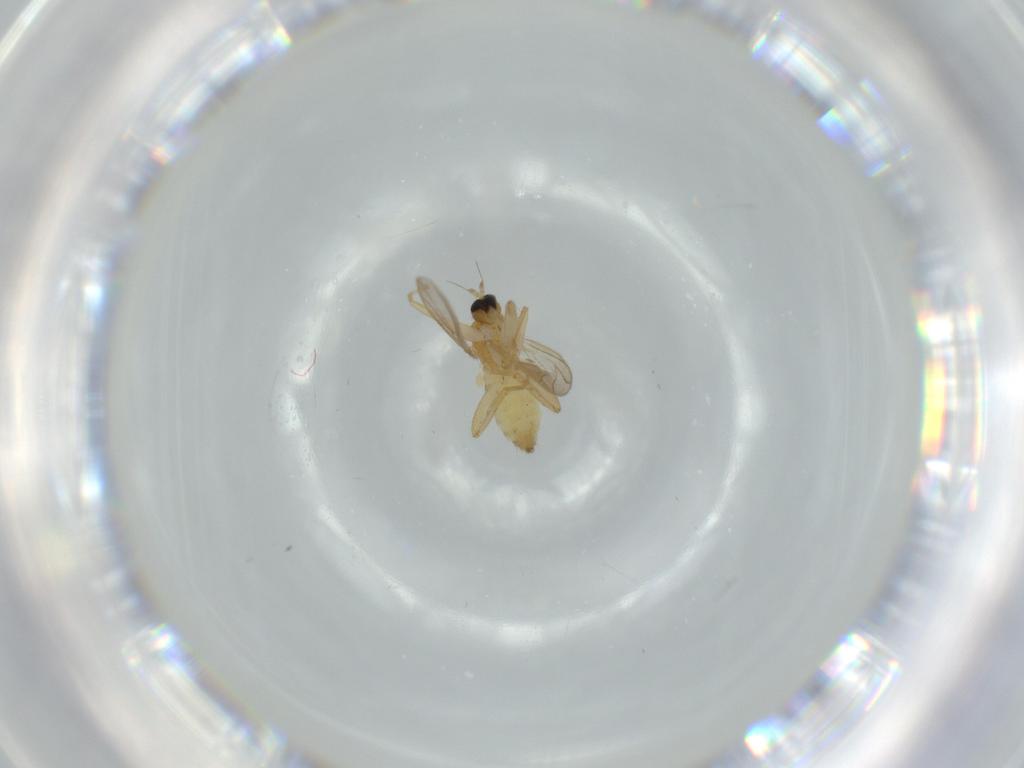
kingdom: Animalia
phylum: Arthropoda
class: Insecta
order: Diptera
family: Hybotidae
